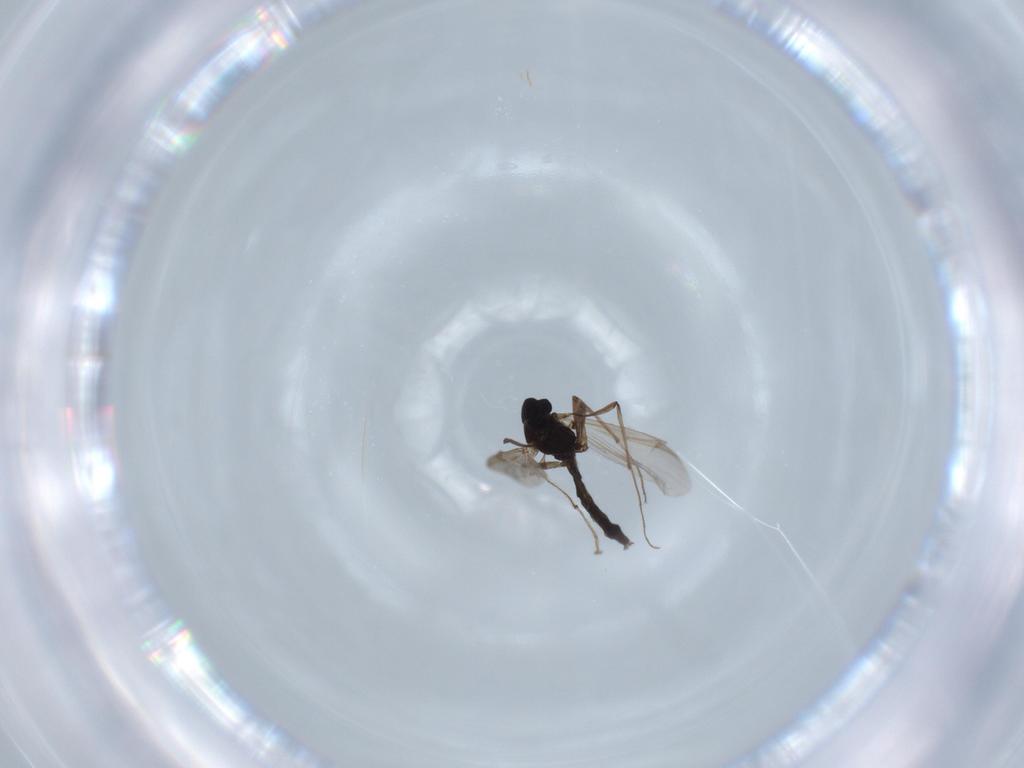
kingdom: Animalia
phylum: Arthropoda
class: Insecta
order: Diptera
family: Chironomidae
